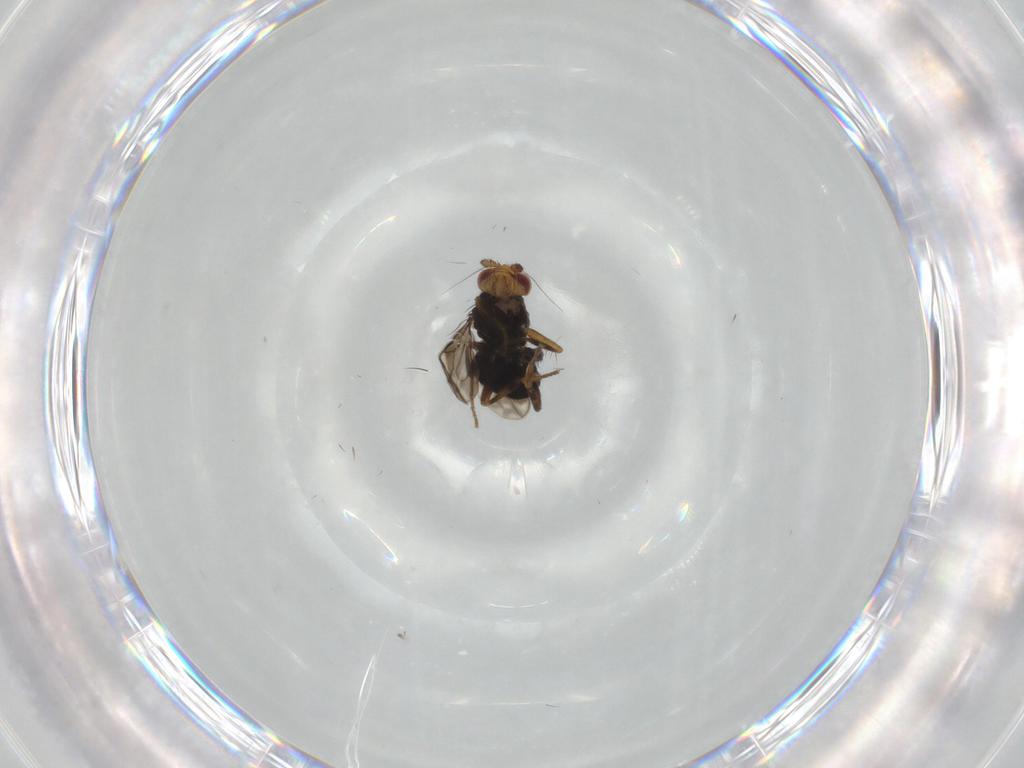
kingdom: Animalia
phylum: Arthropoda
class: Insecta
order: Diptera
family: Sphaeroceridae
